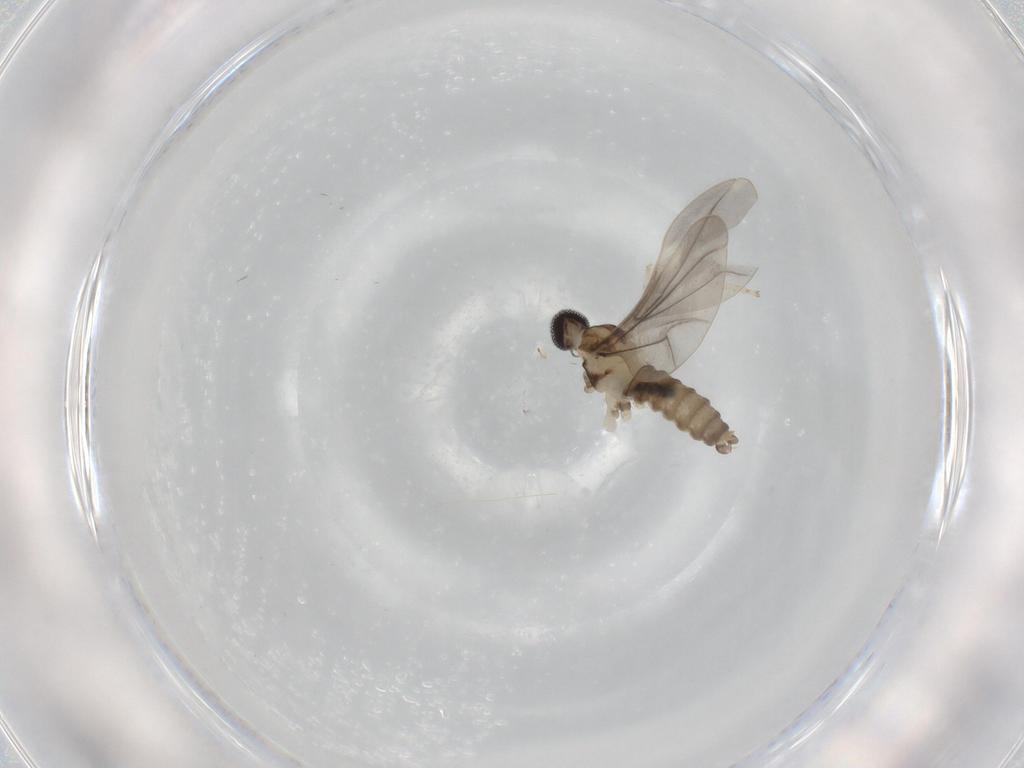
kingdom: Animalia
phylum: Arthropoda
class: Insecta
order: Diptera
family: Cecidomyiidae
